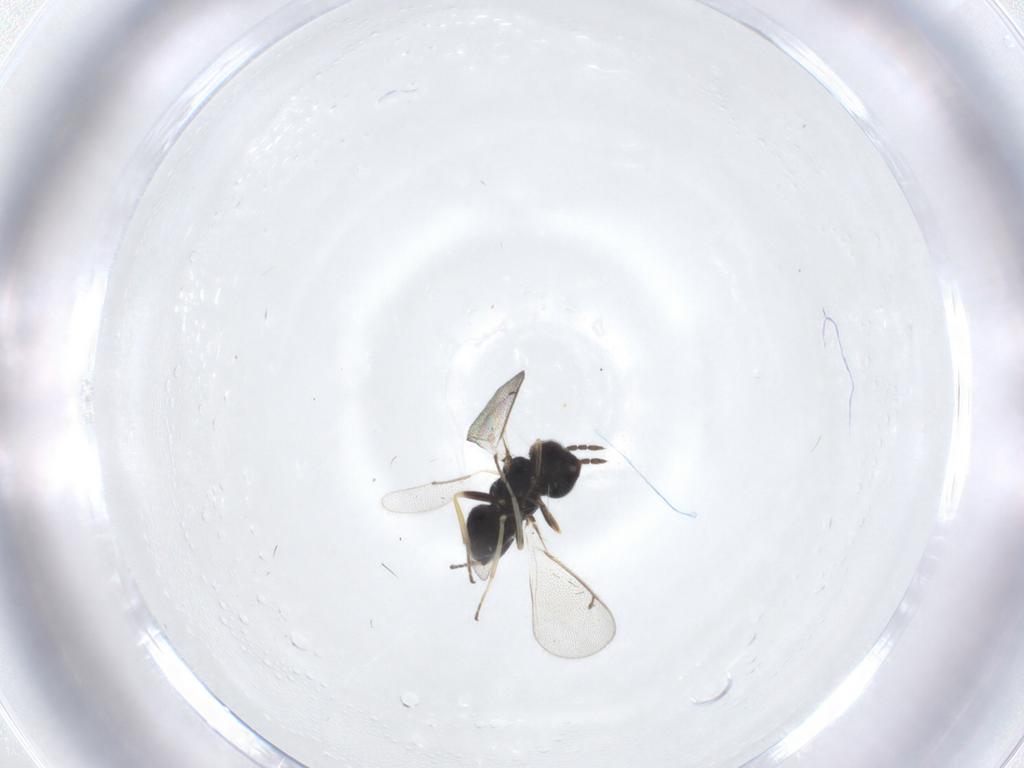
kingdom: Animalia
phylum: Arthropoda
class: Insecta
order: Hymenoptera
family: Eulophidae
